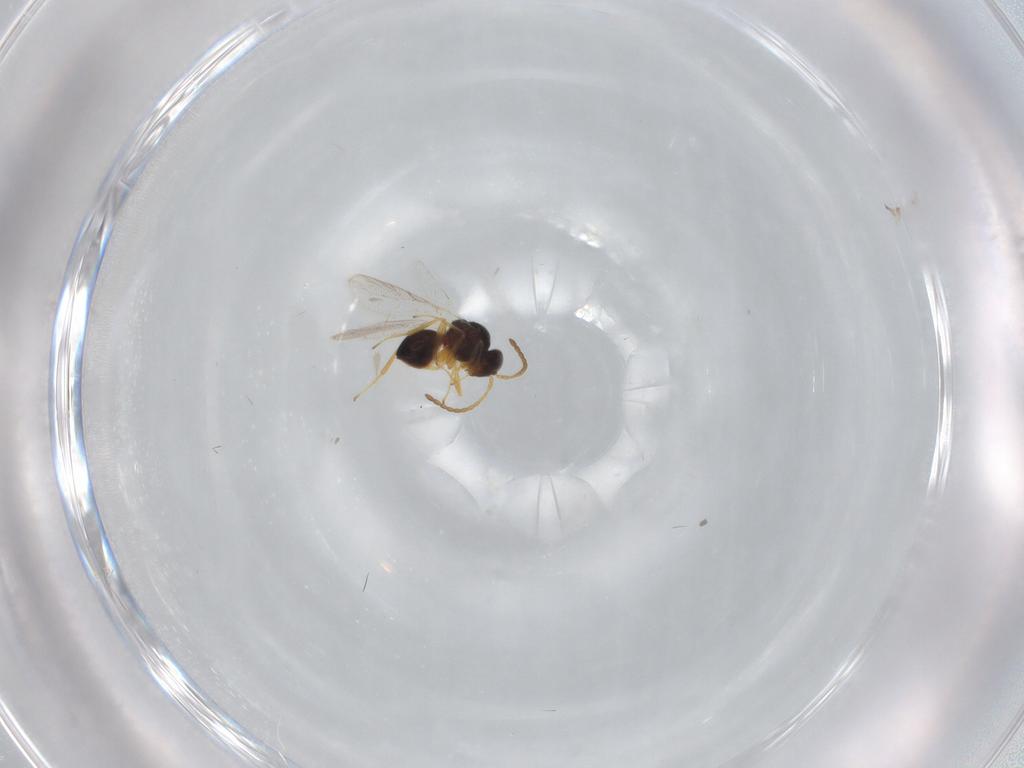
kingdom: Animalia
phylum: Arthropoda
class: Insecta
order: Hymenoptera
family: Figitidae
